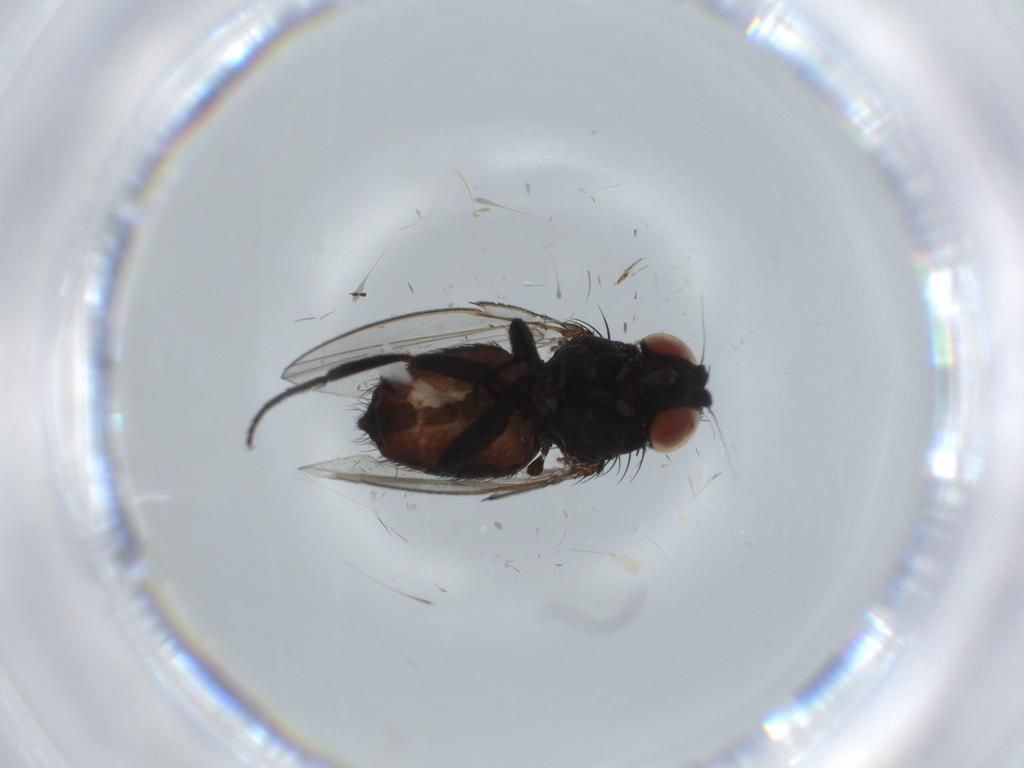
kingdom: Animalia
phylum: Arthropoda
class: Insecta
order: Diptera
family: Milichiidae
